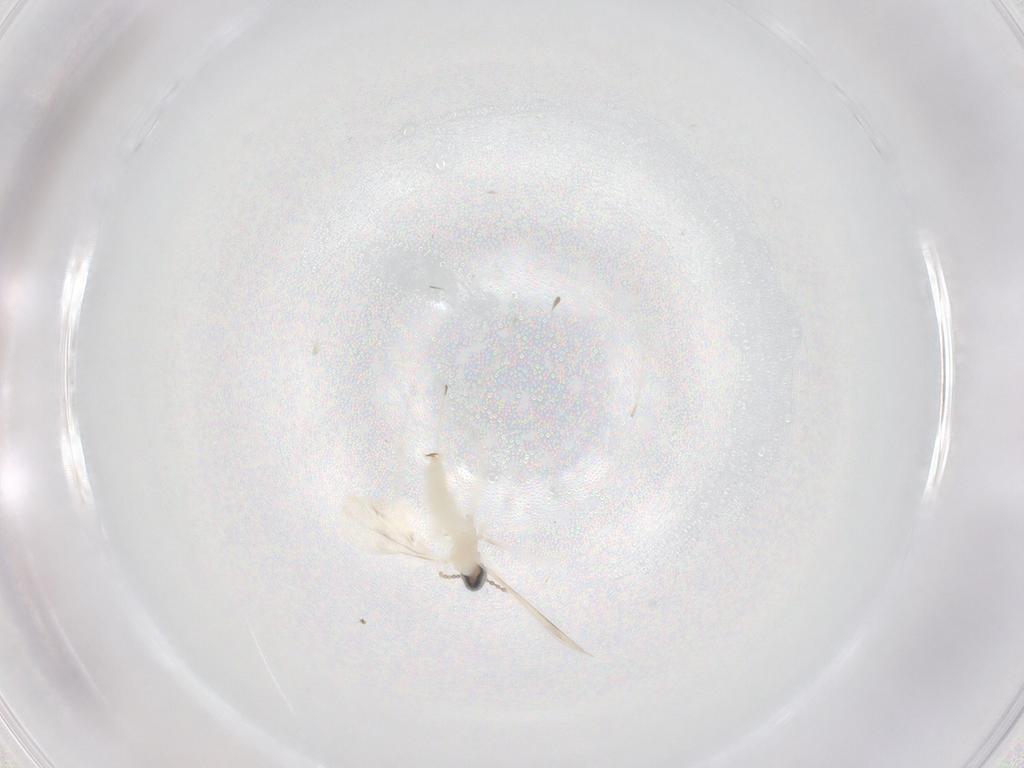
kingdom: Animalia
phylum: Arthropoda
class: Insecta
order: Diptera
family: Cecidomyiidae
